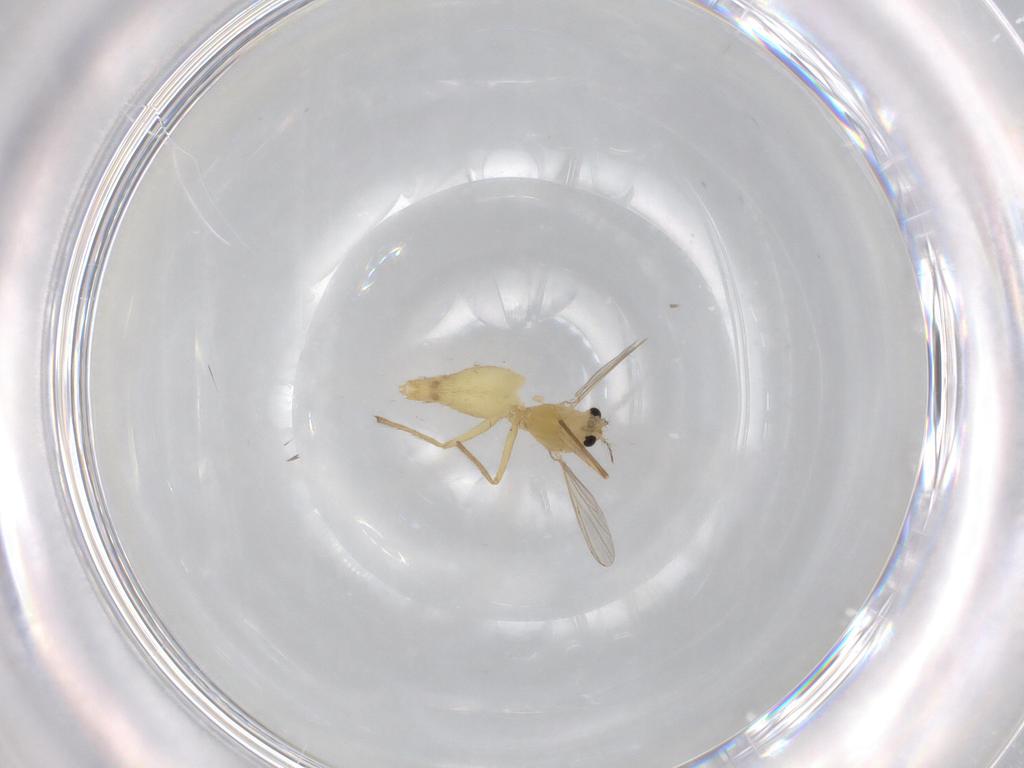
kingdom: Animalia
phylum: Arthropoda
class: Insecta
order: Diptera
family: Chironomidae
